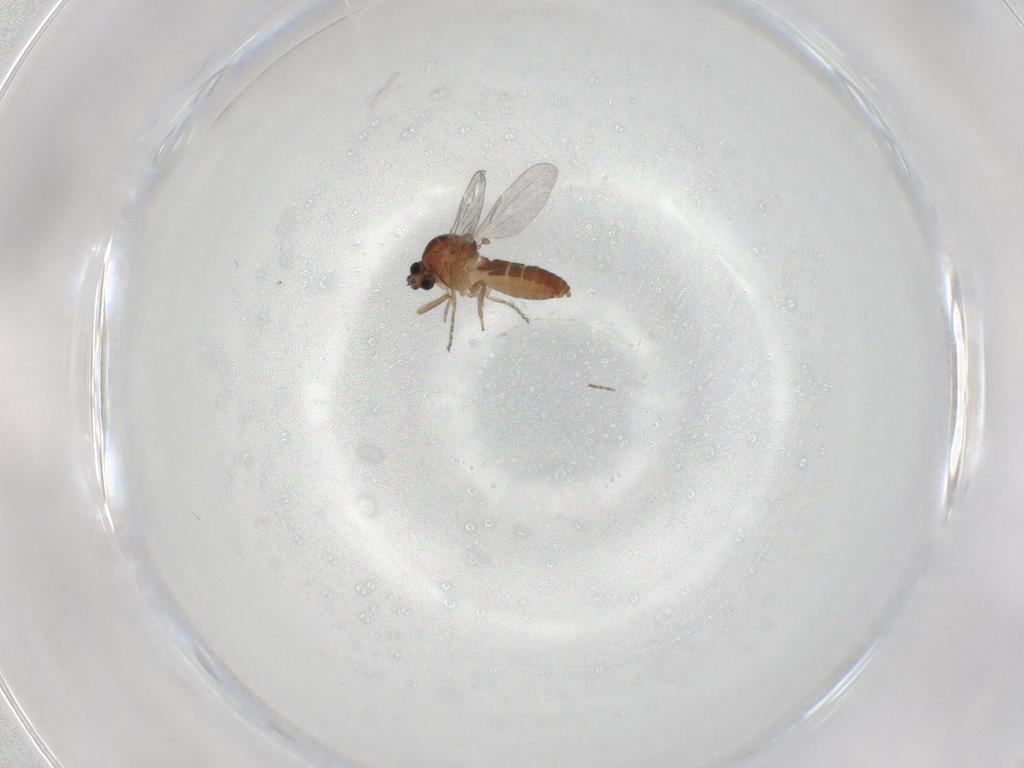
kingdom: Animalia
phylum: Arthropoda
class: Insecta
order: Diptera
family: Ceratopogonidae
